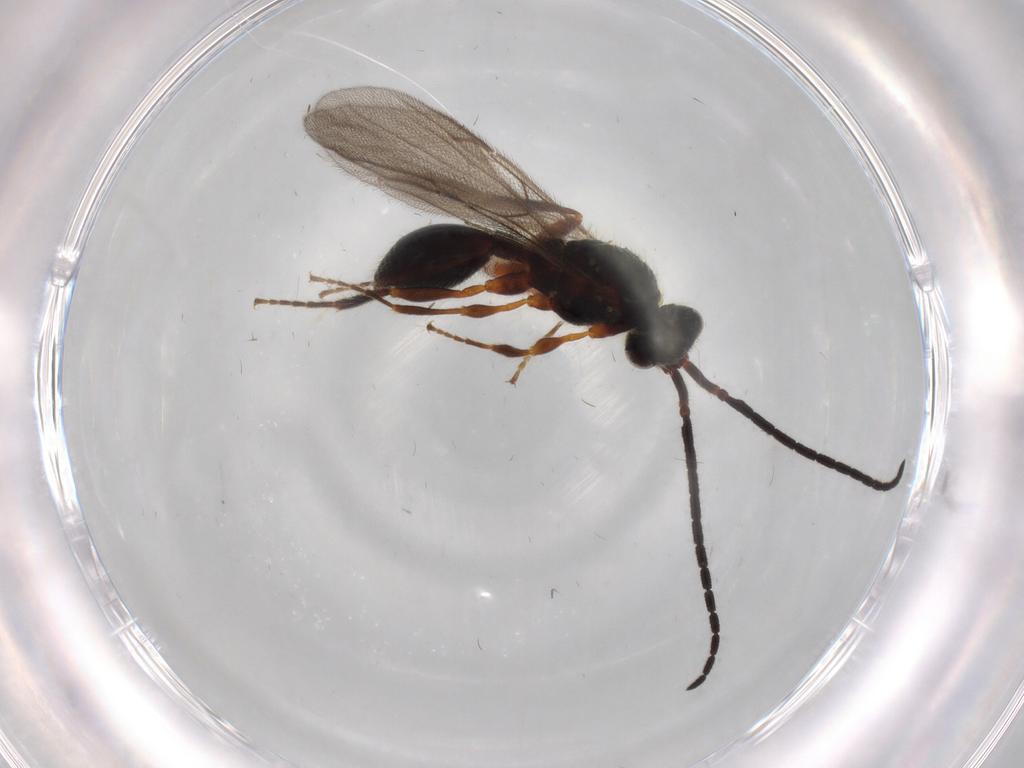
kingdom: Animalia
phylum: Arthropoda
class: Insecta
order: Hymenoptera
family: Diapriidae
